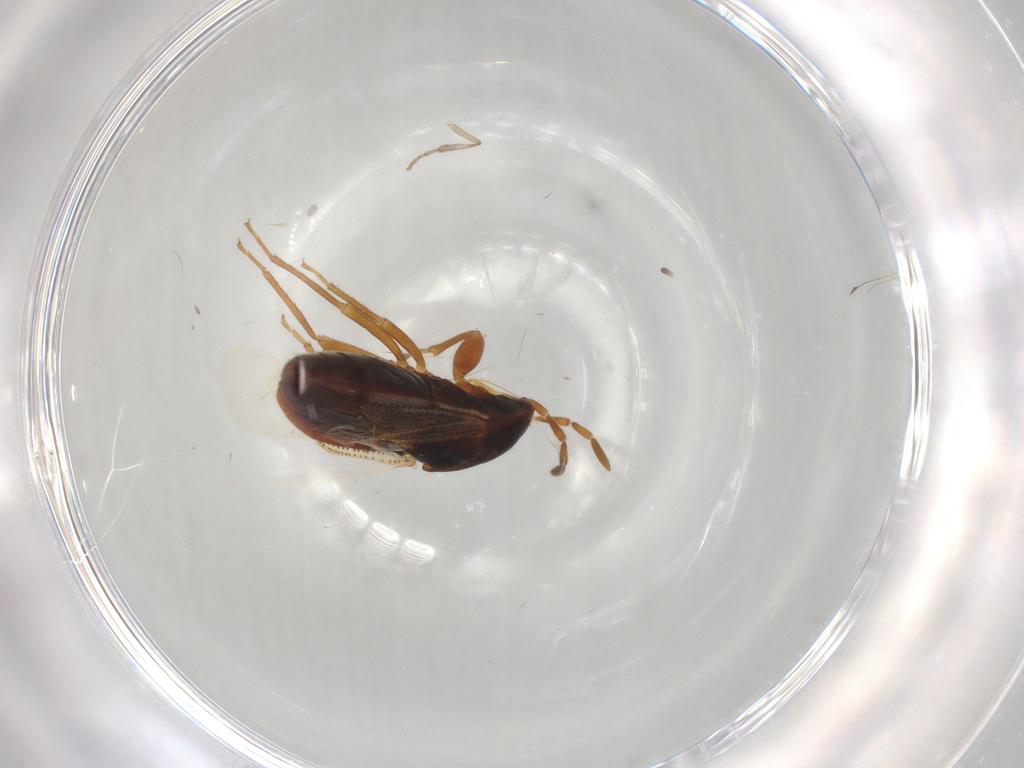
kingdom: Animalia
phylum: Arthropoda
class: Insecta
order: Hemiptera
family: Rhyparochromidae
